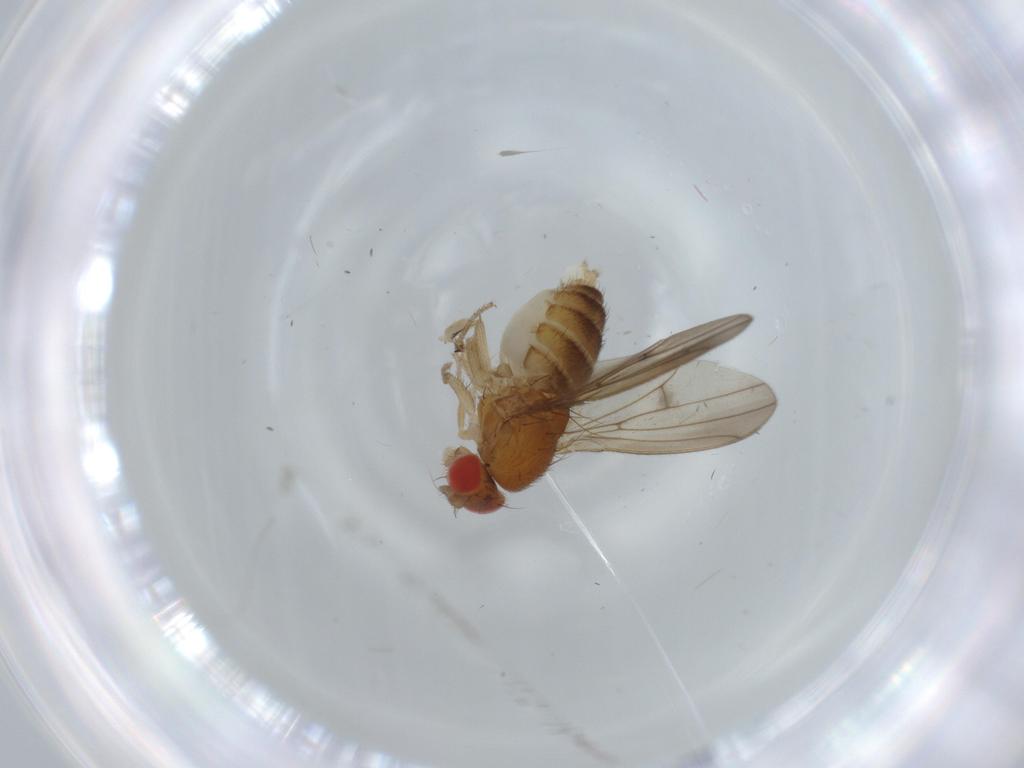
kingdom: Animalia
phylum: Arthropoda
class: Insecta
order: Diptera
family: Drosophilidae
